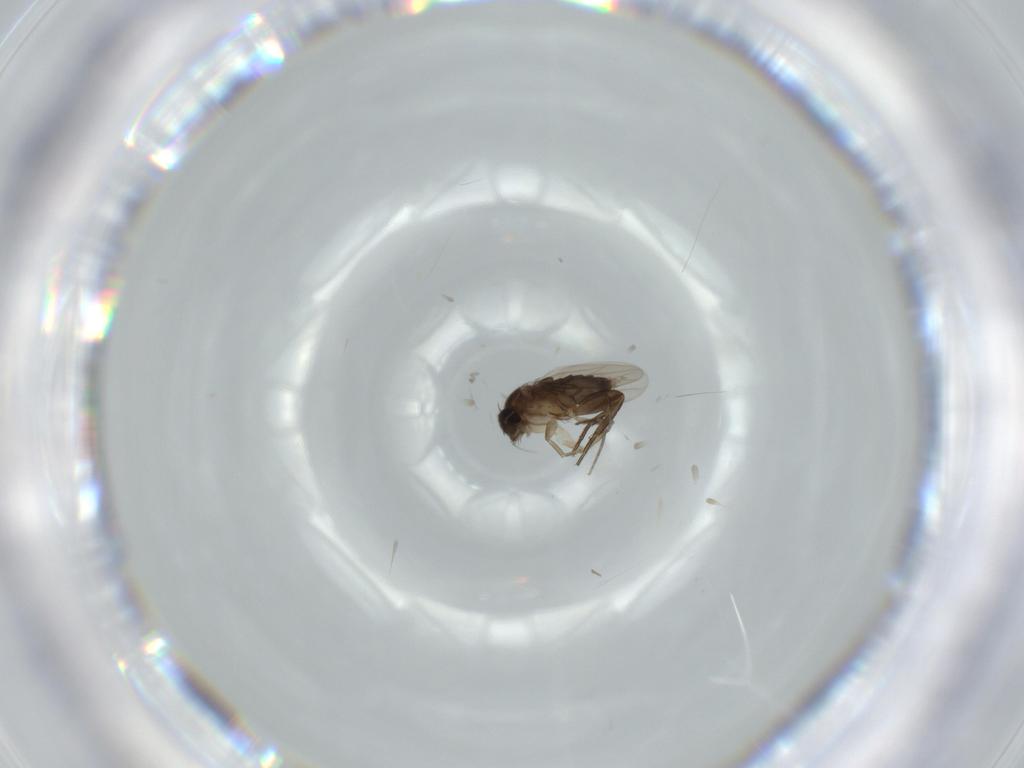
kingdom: Animalia
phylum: Arthropoda
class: Insecta
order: Diptera
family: Phoridae
